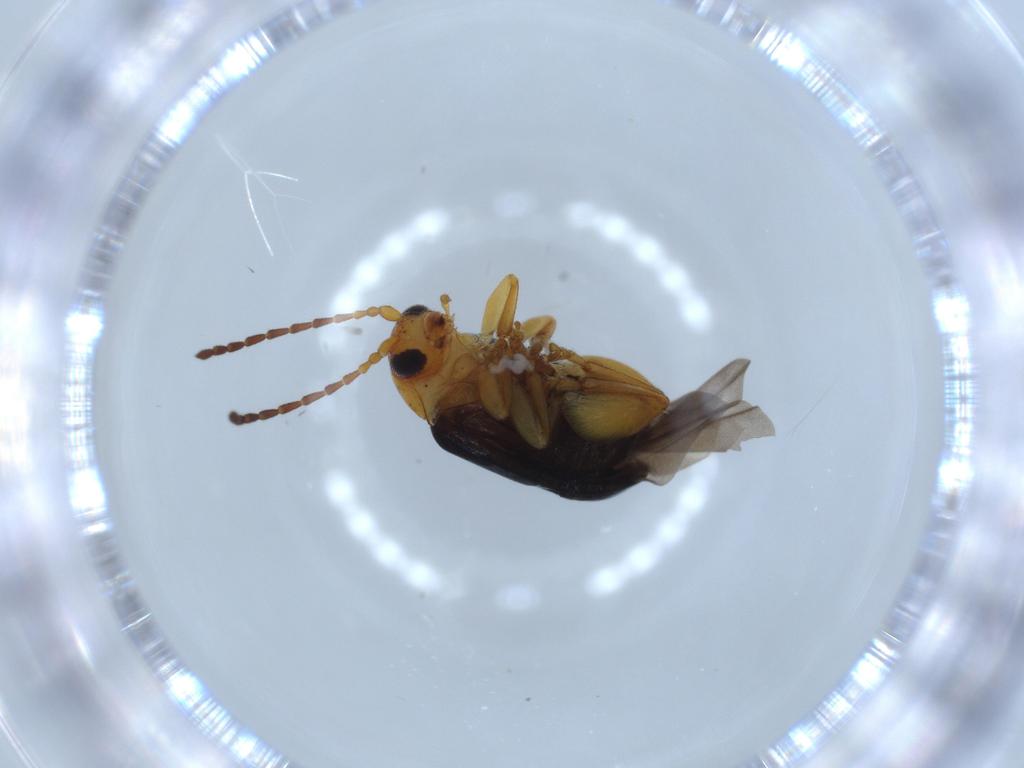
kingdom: Animalia
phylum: Arthropoda
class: Insecta
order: Coleoptera
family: Chrysomelidae
